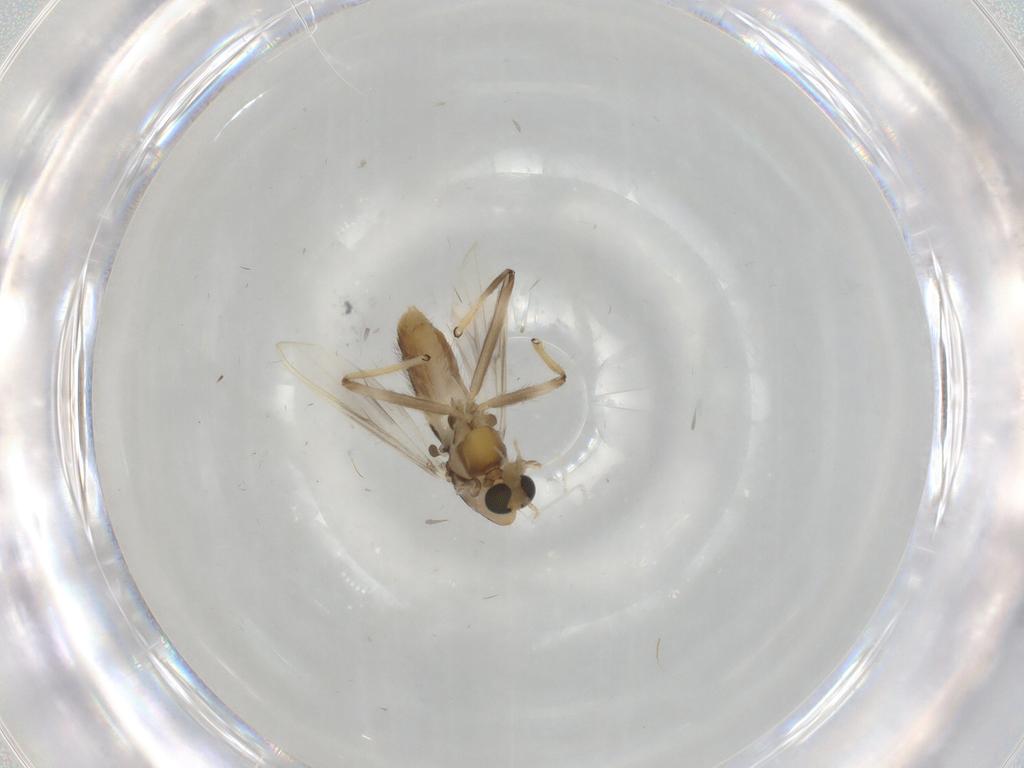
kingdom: Animalia
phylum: Arthropoda
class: Insecta
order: Diptera
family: Chironomidae
